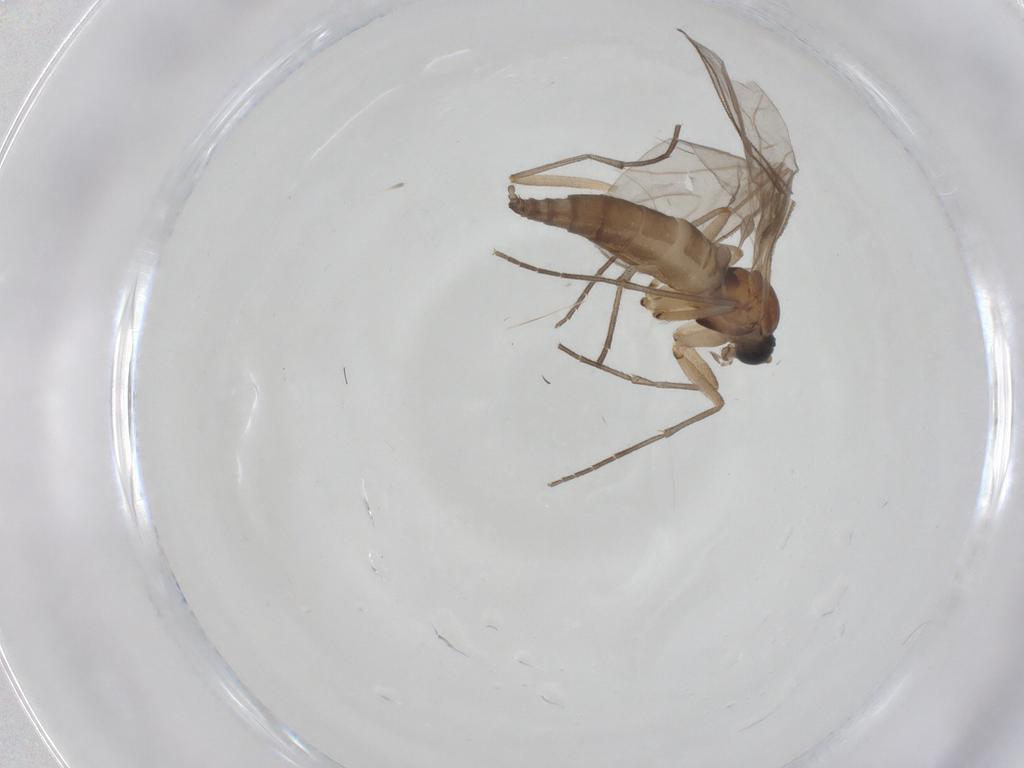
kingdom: Animalia
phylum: Arthropoda
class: Insecta
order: Diptera
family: Sciaridae
